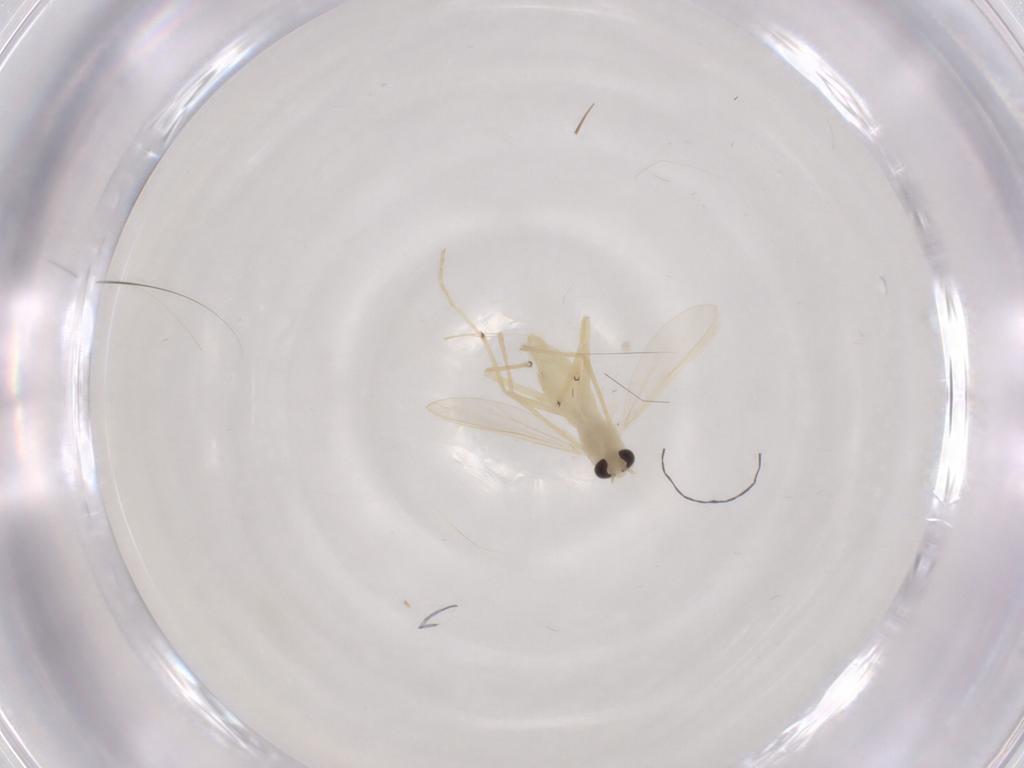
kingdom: Animalia
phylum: Arthropoda
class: Insecta
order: Diptera
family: Chironomidae
